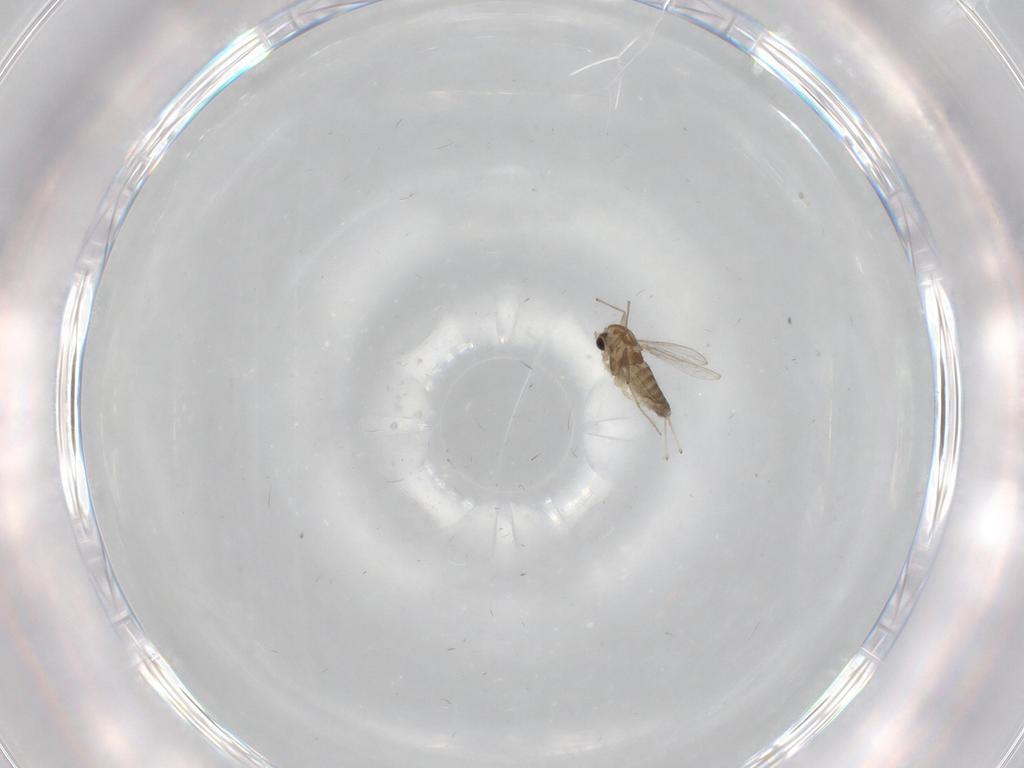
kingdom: Animalia
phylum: Arthropoda
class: Insecta
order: Diptera
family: Chironomidae
